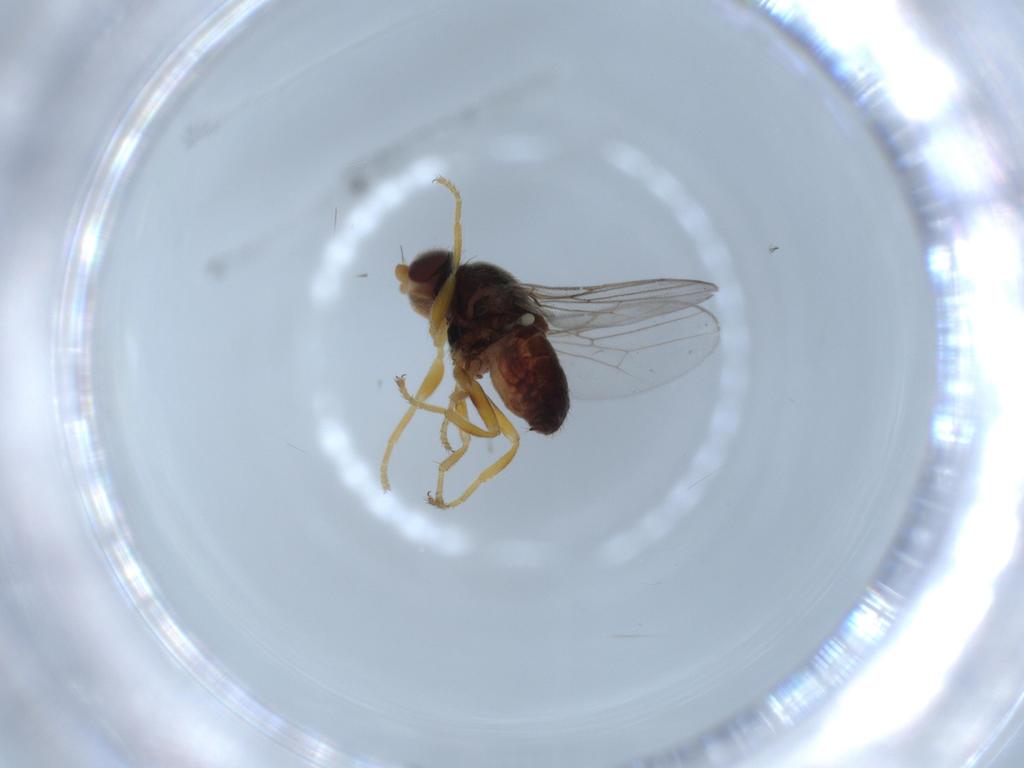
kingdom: Animalia
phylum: Arthropoda
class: Insecta
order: Diptera
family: Chloropidae
